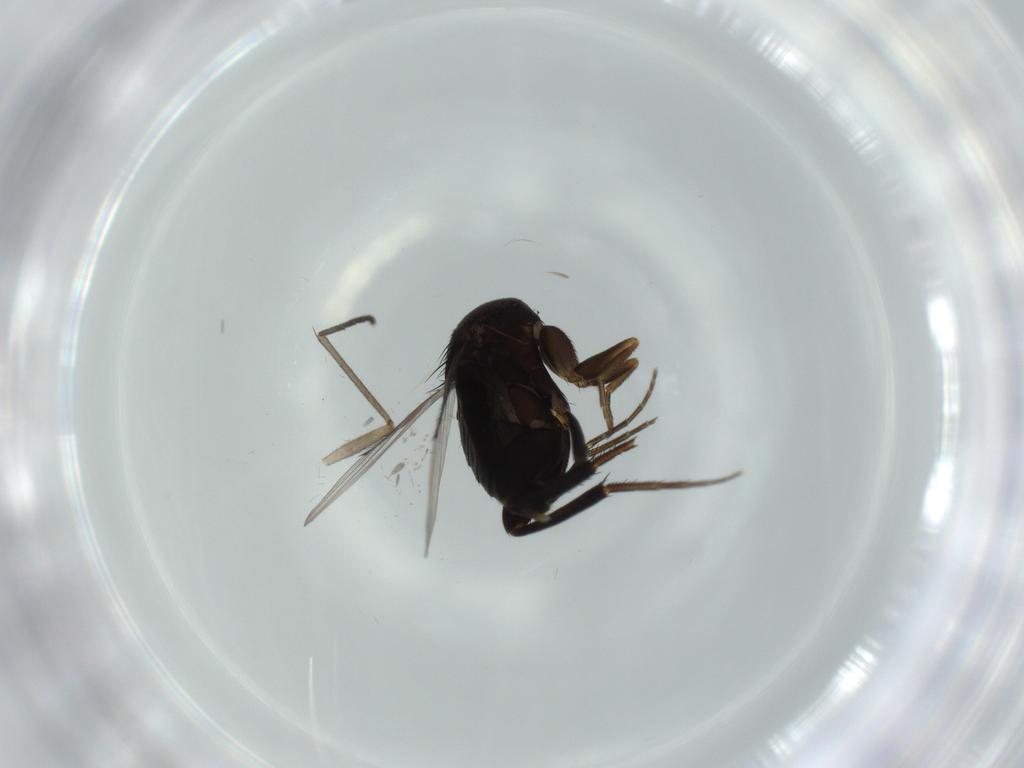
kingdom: Animalia
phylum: Arthropoda
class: Insecta
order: Diptera
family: Phoridae
